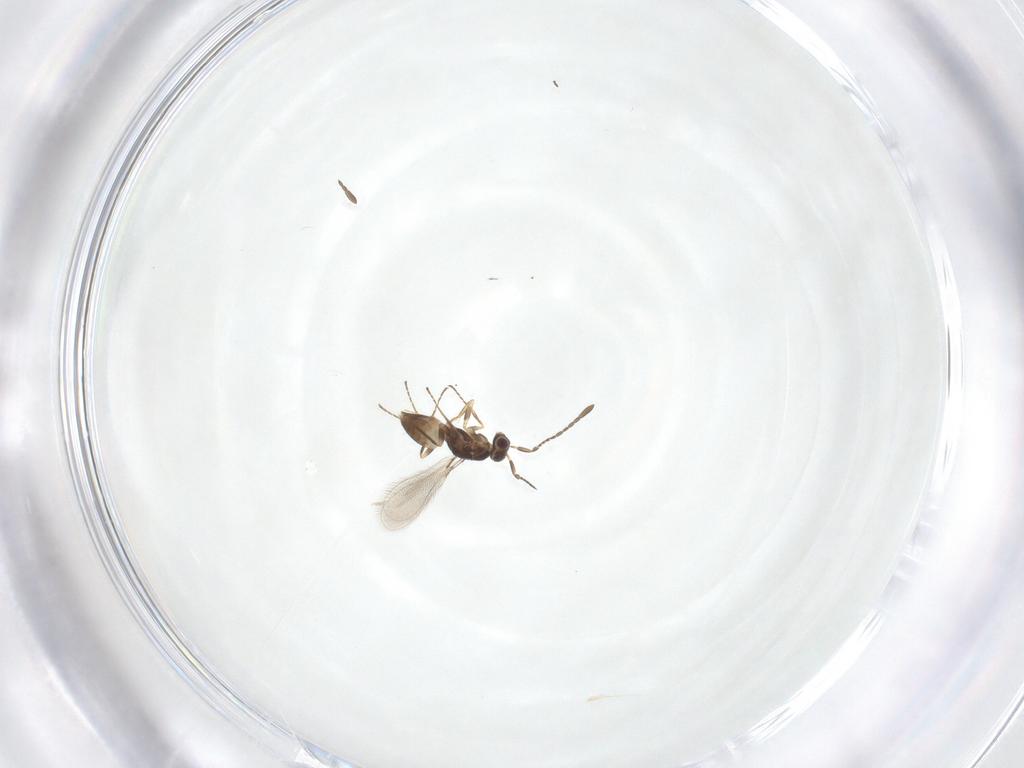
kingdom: Animalia
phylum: Arthropoda
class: Insecta
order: Hymenoptera
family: Mymaridae
